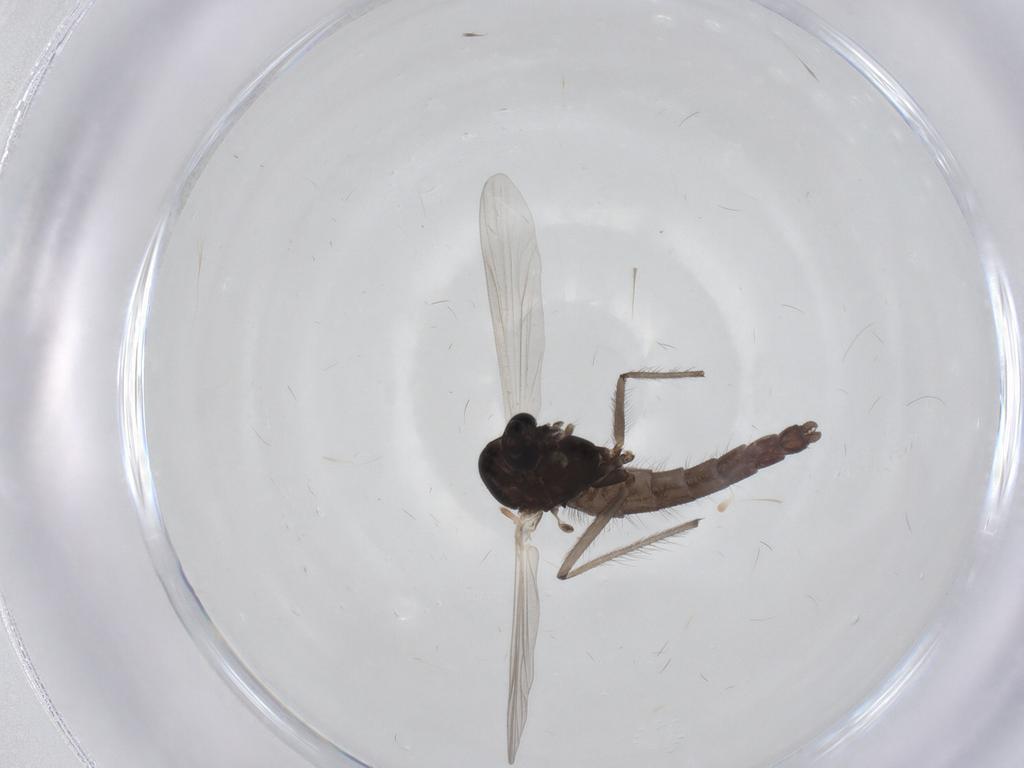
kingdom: Animalia
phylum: Arthropoda
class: Insecta
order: Diptera
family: Chironomidae
